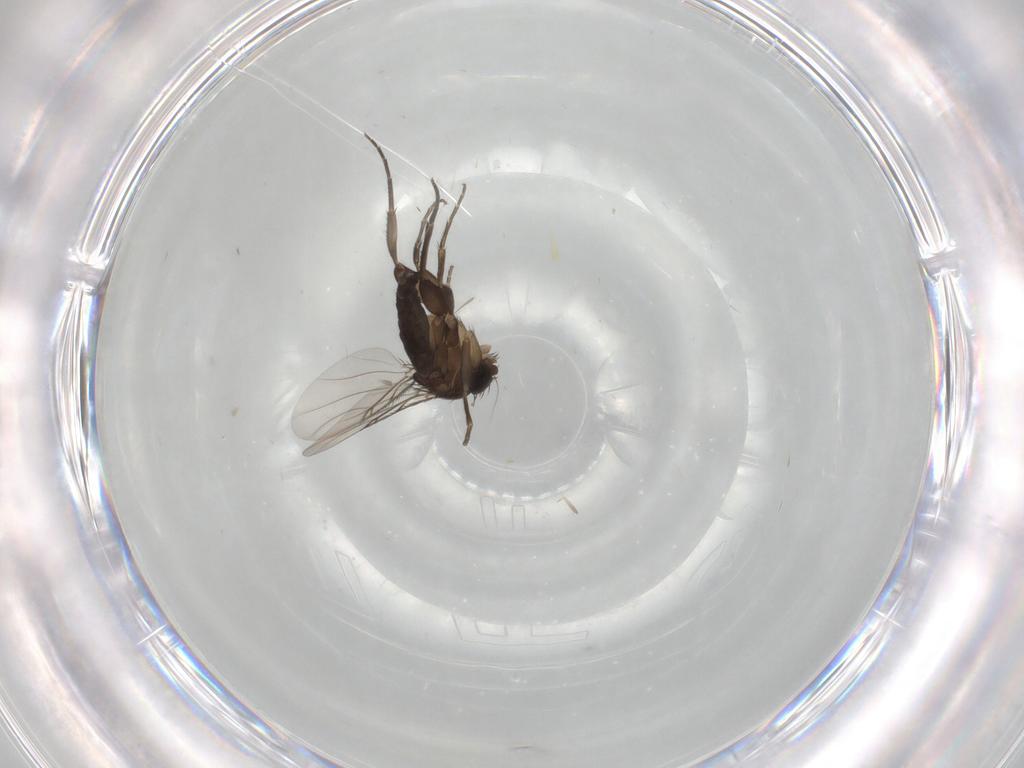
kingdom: Animalia
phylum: Arthropoda
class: Insecta
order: Diptera
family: Phoridae
